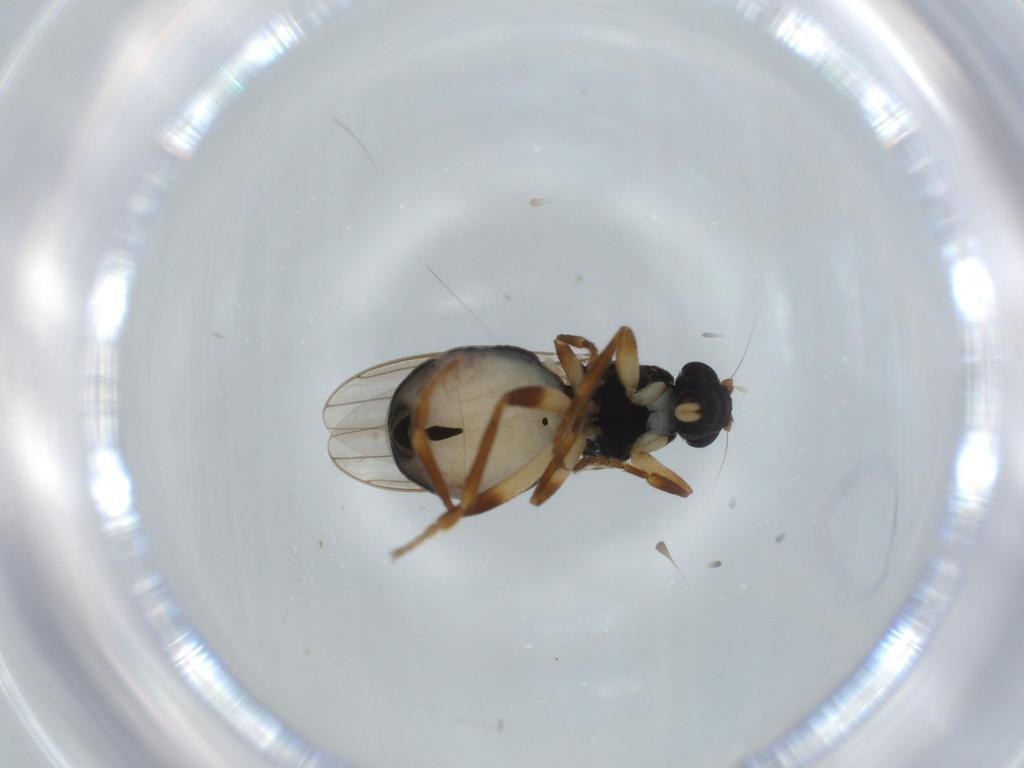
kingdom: Animalia
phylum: Arthropoda
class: Insecta
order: Diptera
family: Sphaeroceridae
